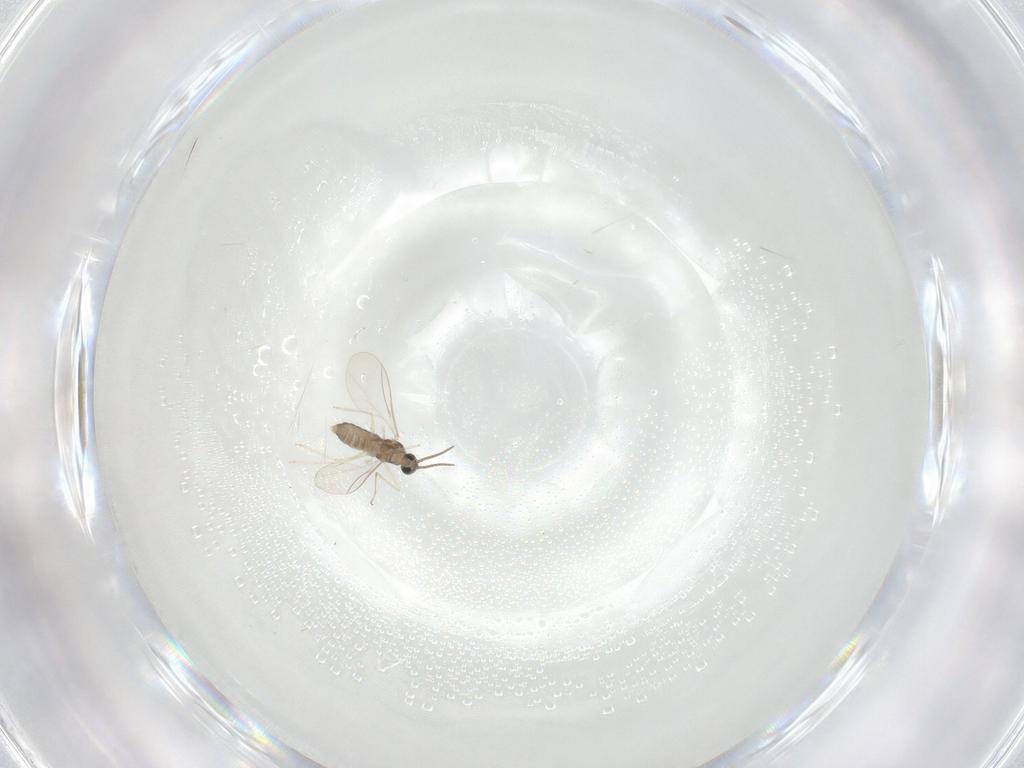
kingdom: Animalia
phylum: Arthropoda
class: Insecta
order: Diptera
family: Cecidomyiidae
